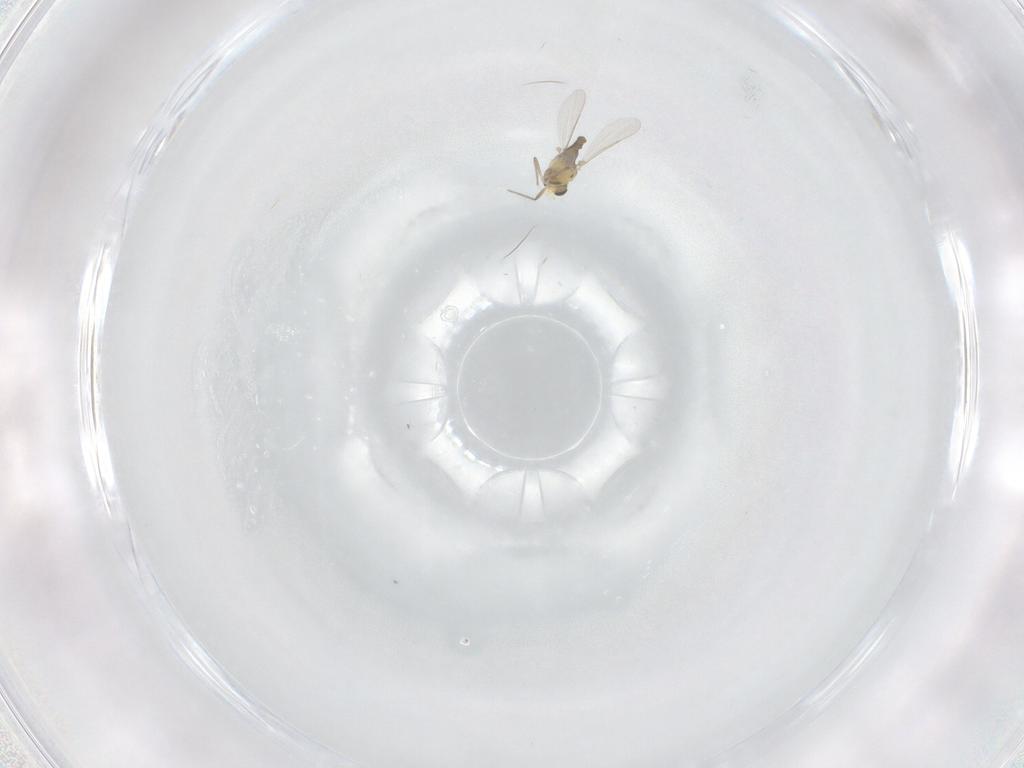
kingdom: Animalia
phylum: Arthropoda
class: Insecta
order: Diptera
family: Chironomidae
